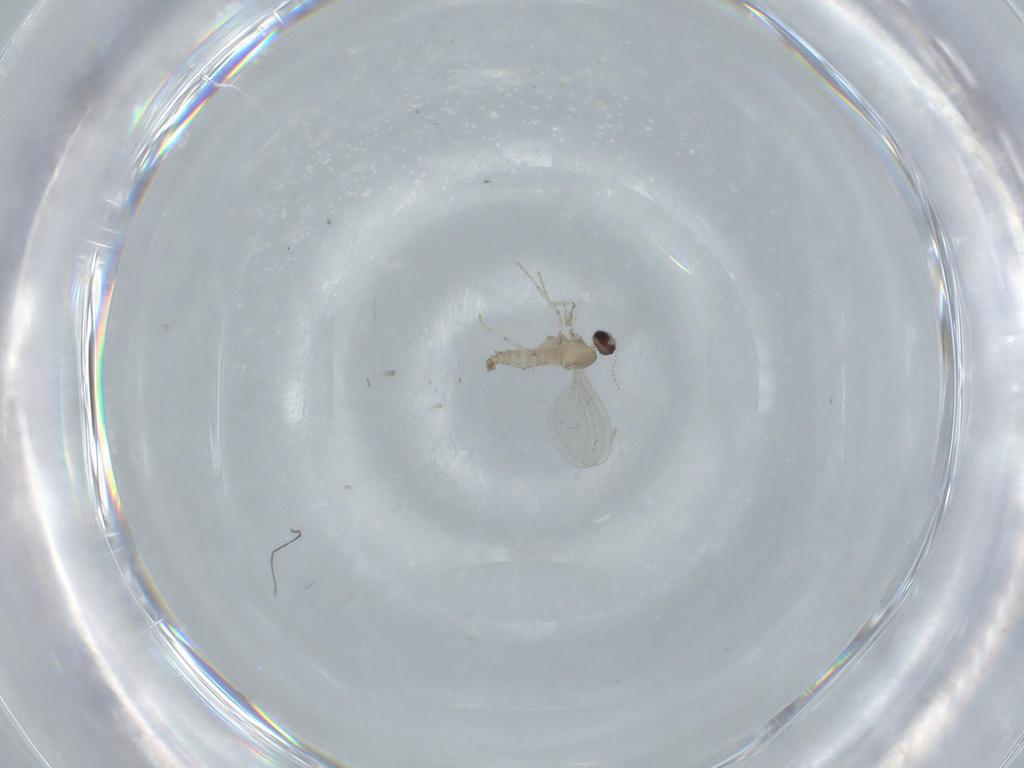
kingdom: Animalia
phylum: Arthropoda
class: Insecta
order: Diptera
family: Cecidomyiidae
